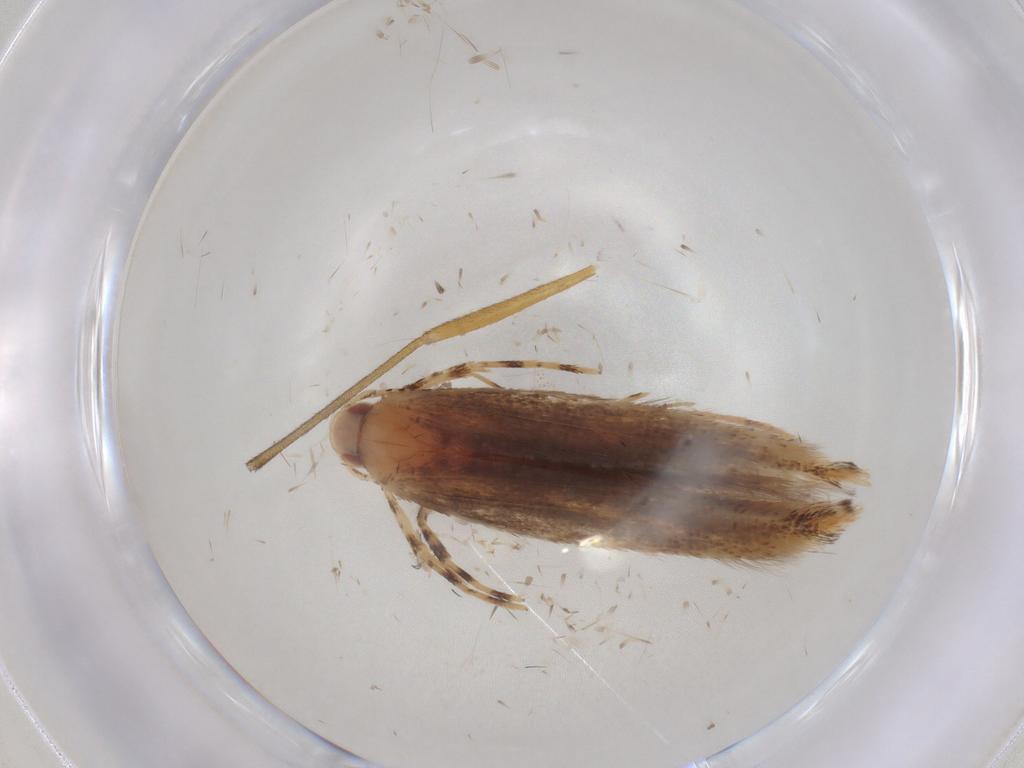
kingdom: Animalia
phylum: Arthropoda
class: Insecta
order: Lepidoptera
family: Cosmopterigidae
